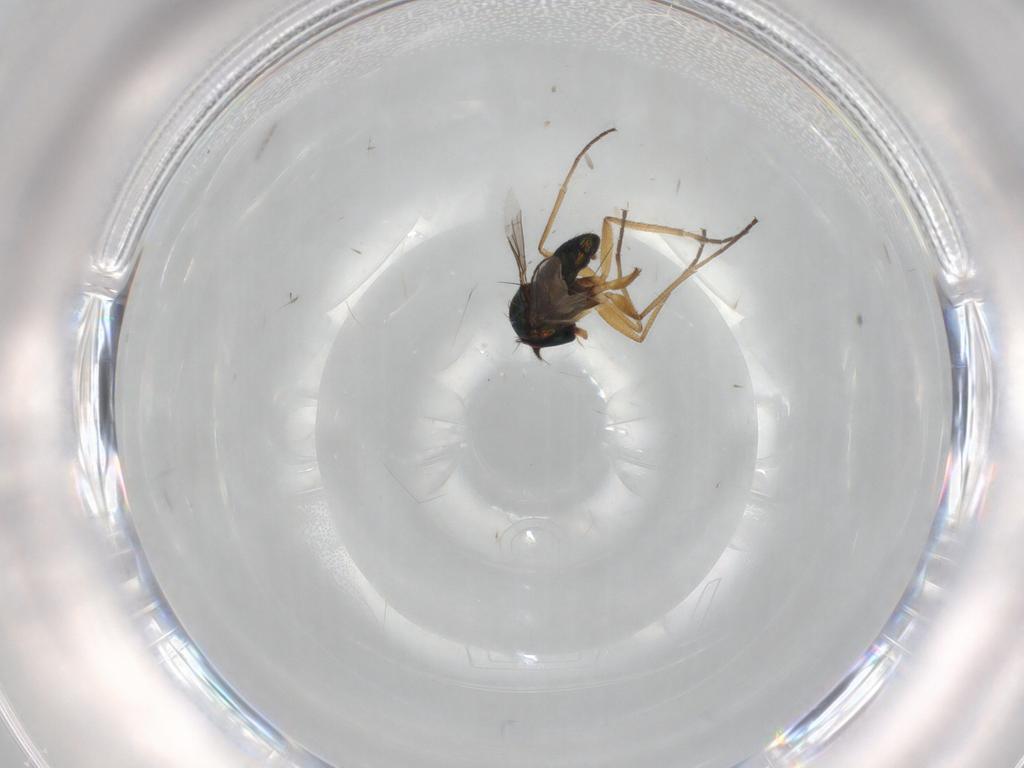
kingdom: Animalia
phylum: Arthropoda
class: Insecta
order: Diptera
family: Dolichopodidae
